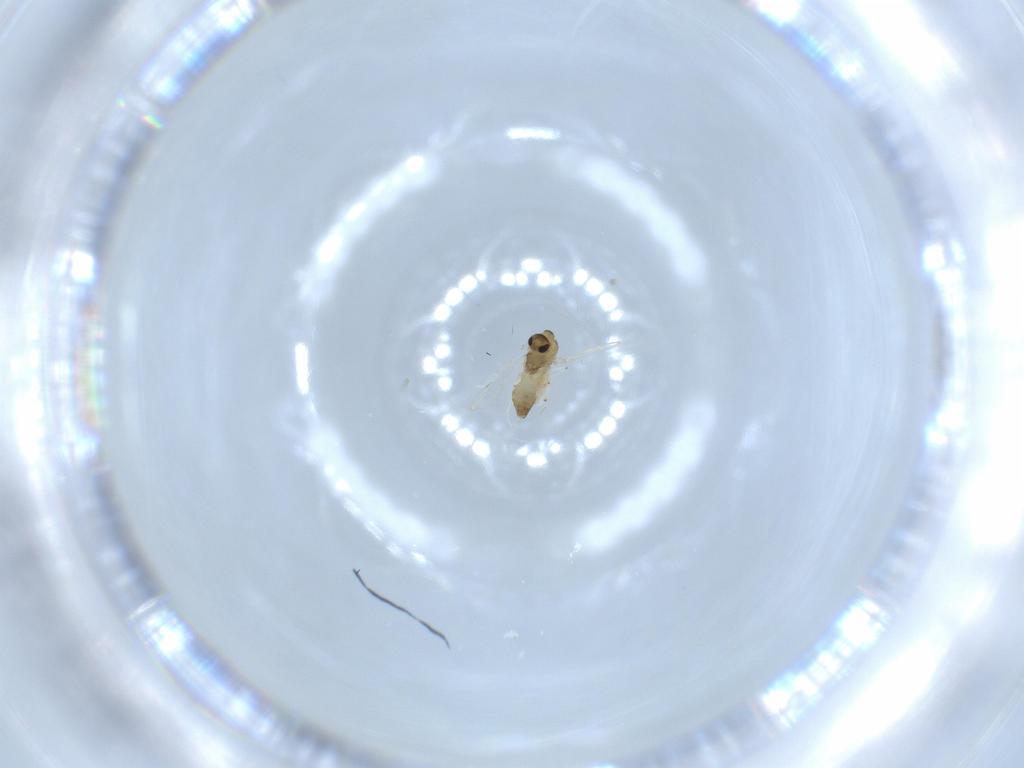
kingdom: Animalia
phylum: Arthropoda
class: Insecta
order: Diptera
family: Chironomidae
